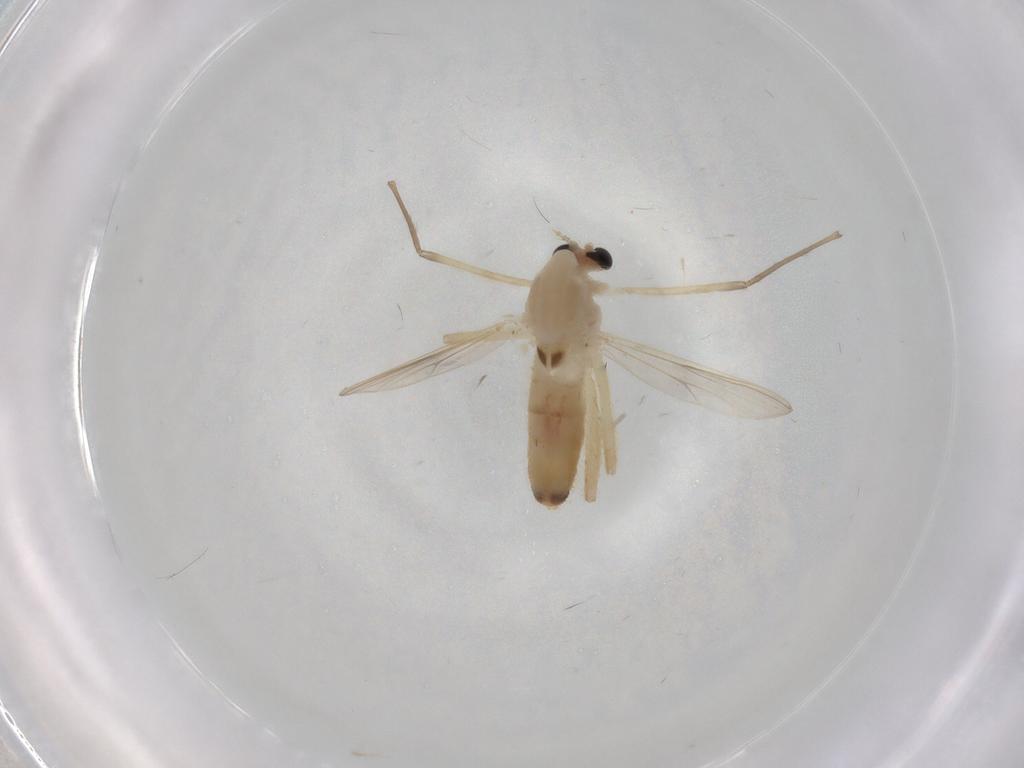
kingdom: Animalia
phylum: Arthropoda
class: Insecta
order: Diptera
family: Chironomidae
